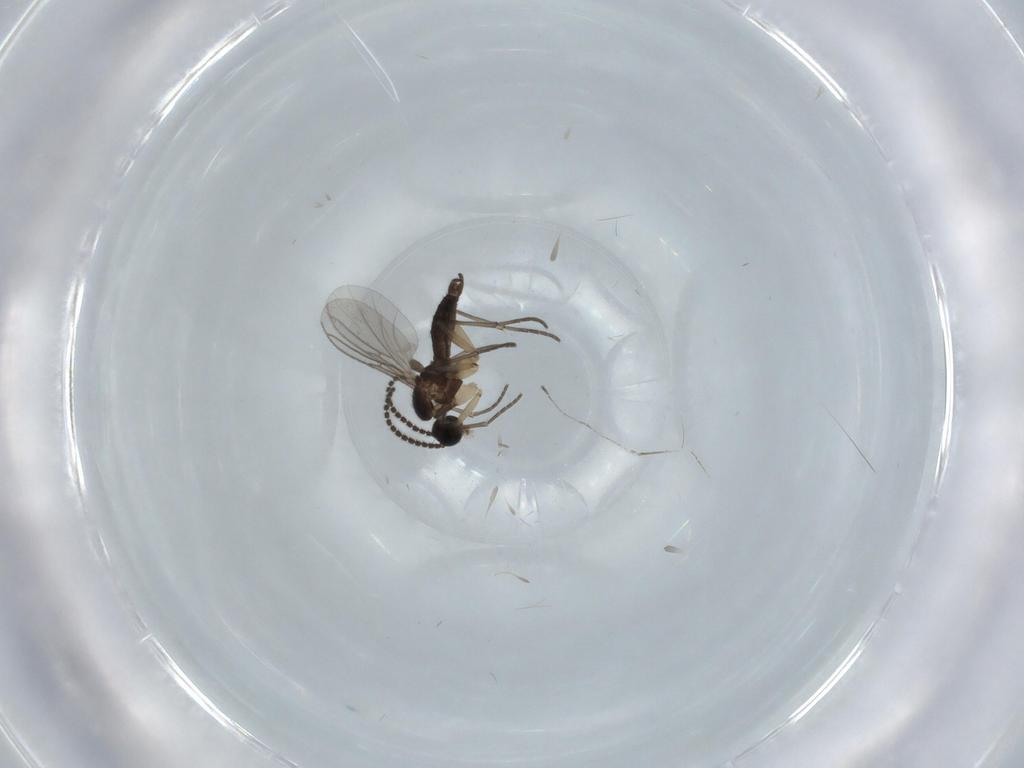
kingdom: Animalia
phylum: Arthropoda
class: Insecta
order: Diptera
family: Sciaridae
